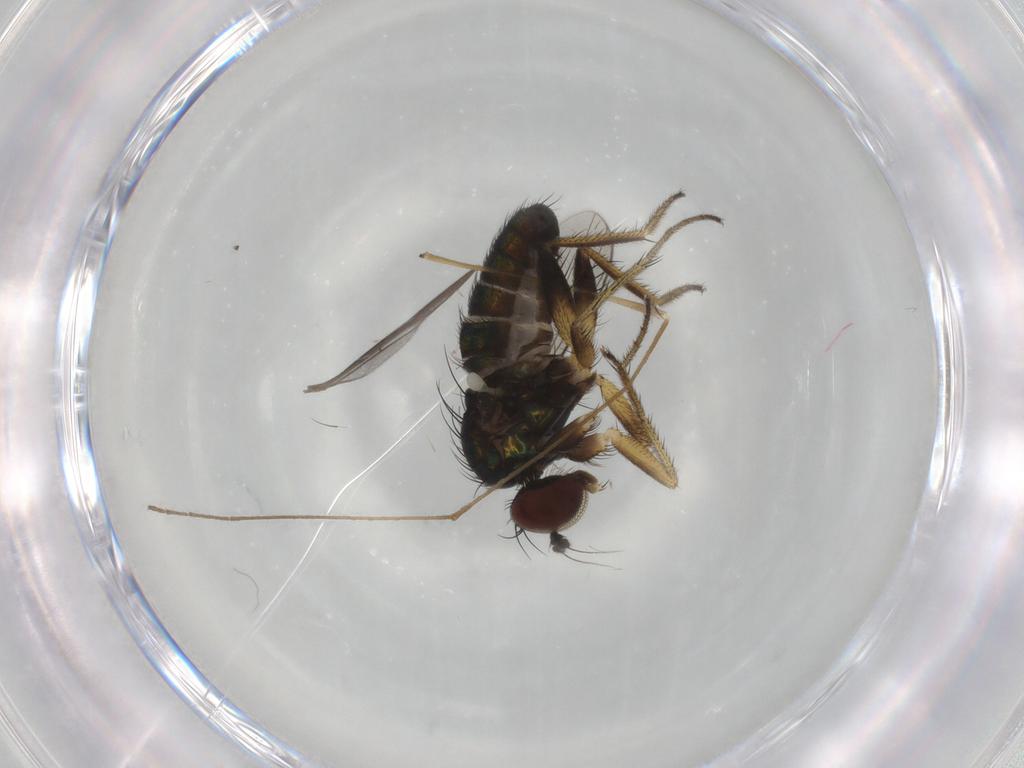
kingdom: Animalia
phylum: Arthropoda
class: Insecta
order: Diptera
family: Dolichopodidae
